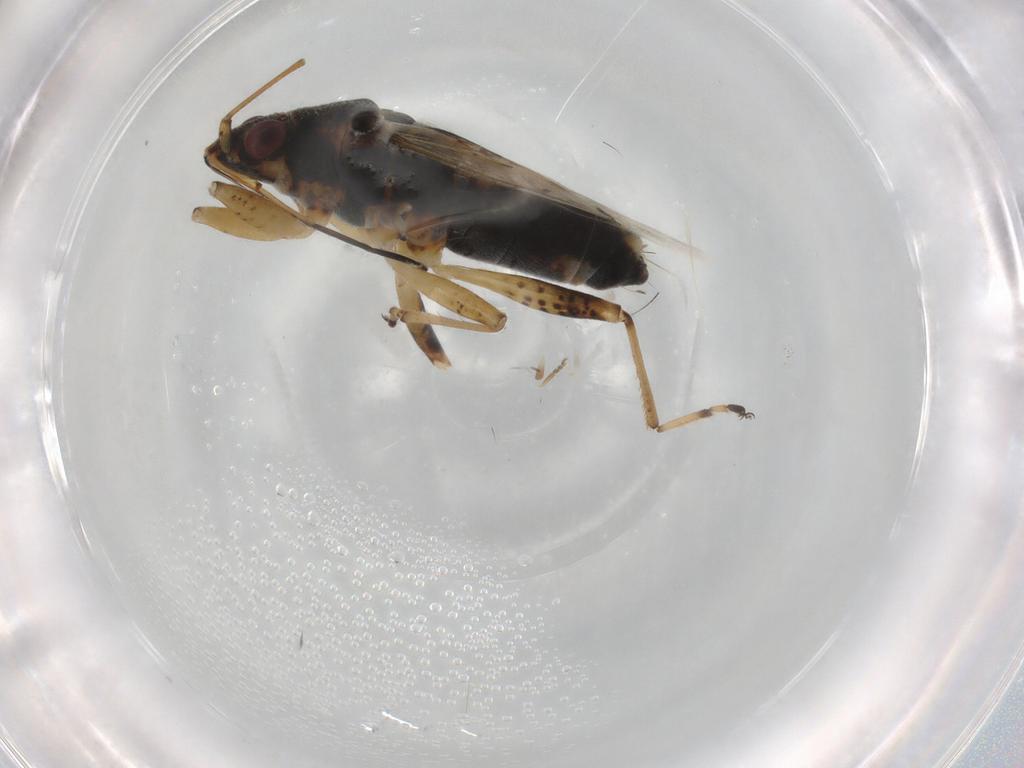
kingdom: Animalia
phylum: Arthropoda
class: Insecta
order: Hemiptera
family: Lygaeidae
